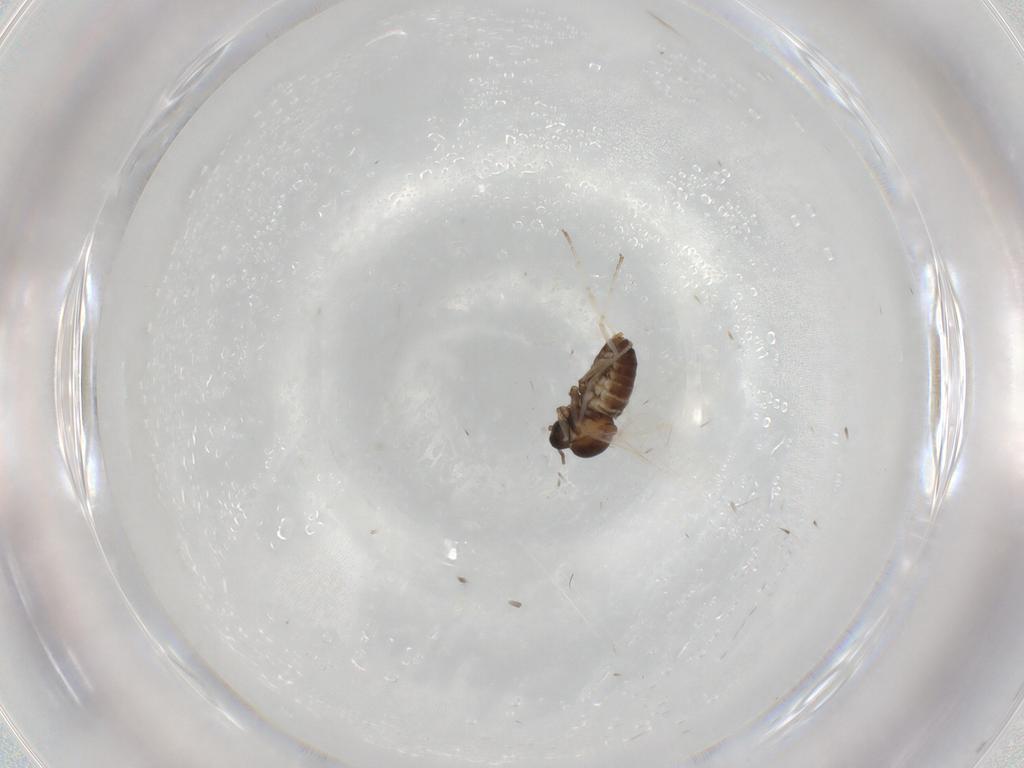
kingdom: Animalia
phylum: Arthropoda
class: Insecta
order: Diptera
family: Cecidomyiidae
